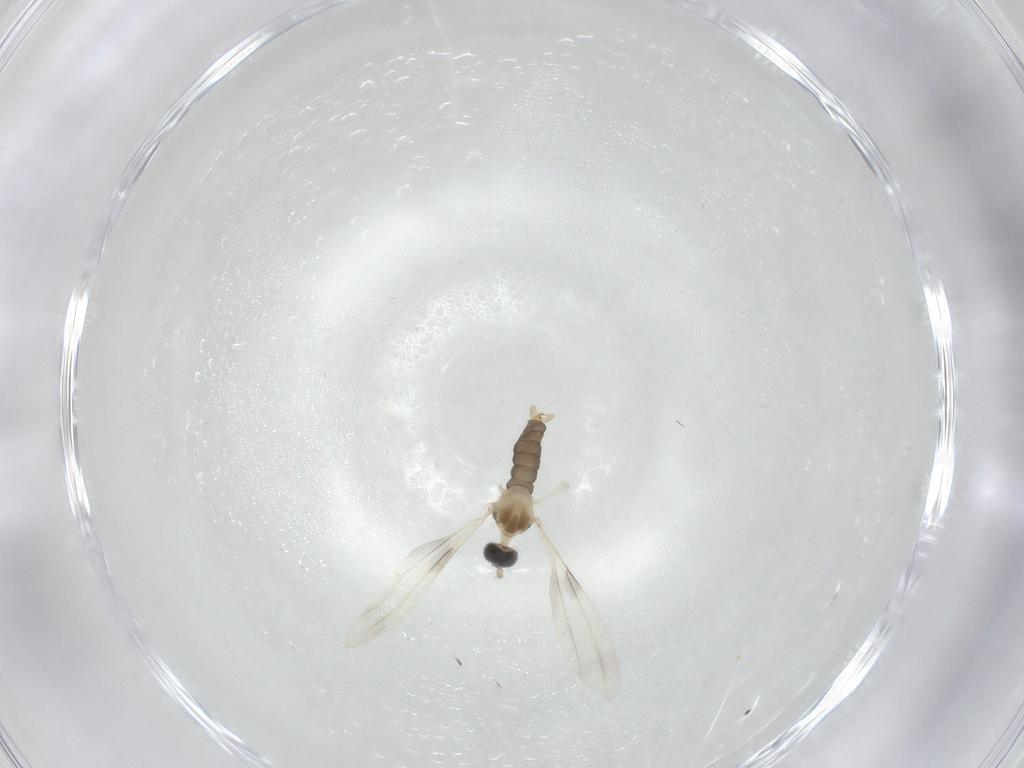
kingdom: Animalia
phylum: Arthropoda
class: Insecta
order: Diptera
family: Cecidomyiidae
